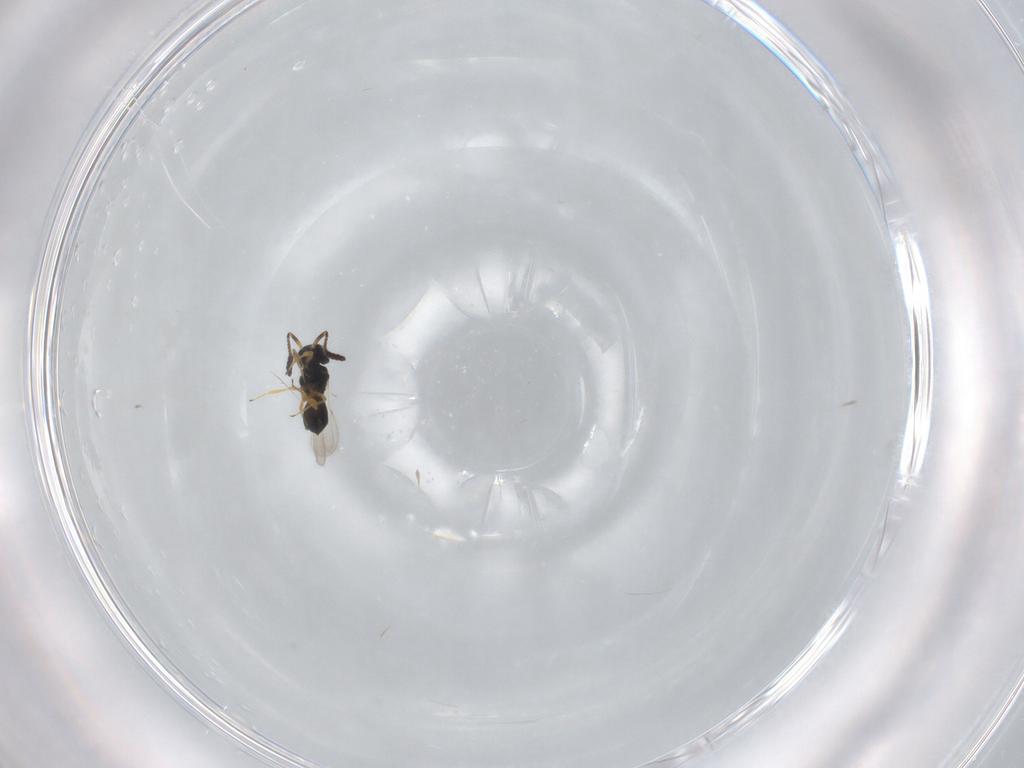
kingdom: Animalia
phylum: Arthropoda
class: Insecta
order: Hymenoptera
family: Scelionidae
